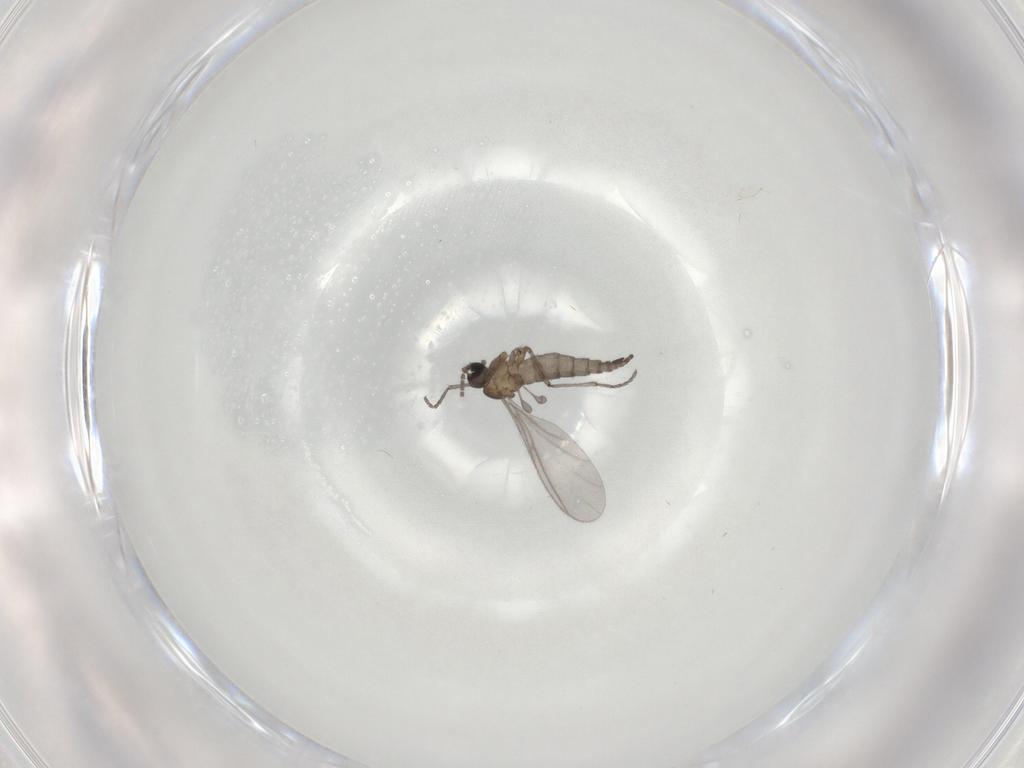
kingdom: Animalia
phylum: Arthropoda
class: Insecta
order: Diptera
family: Sciaridae
